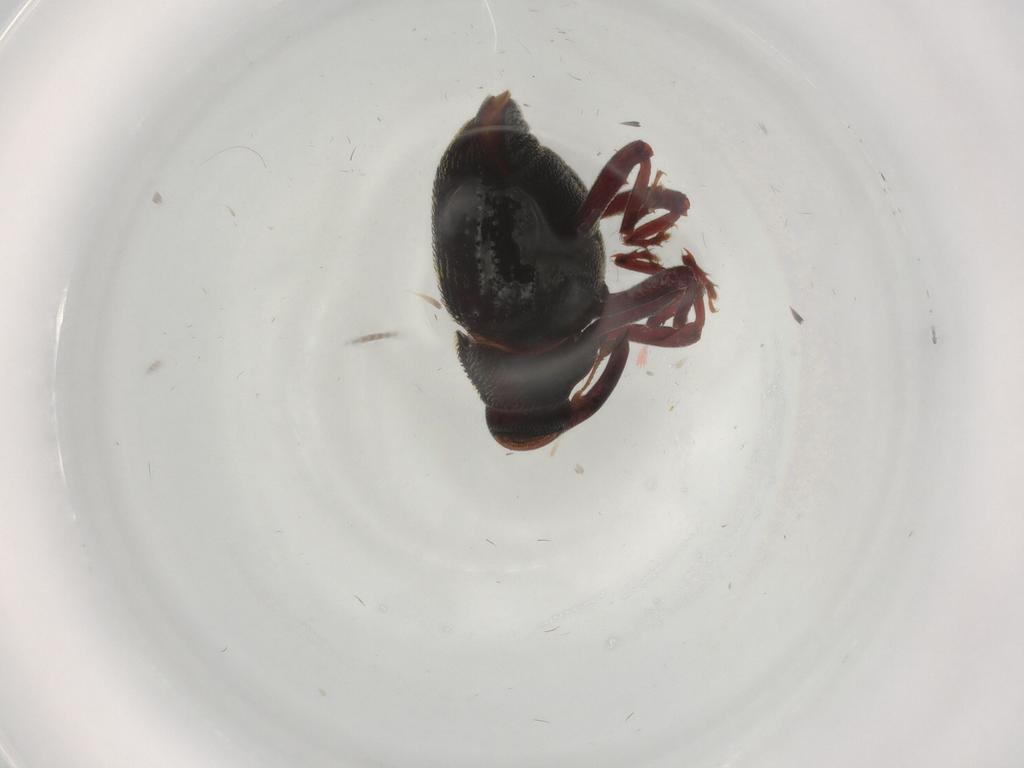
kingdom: Animalia
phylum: Arthropoda
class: Insecta
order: Coleoptera
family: Curculionidae
